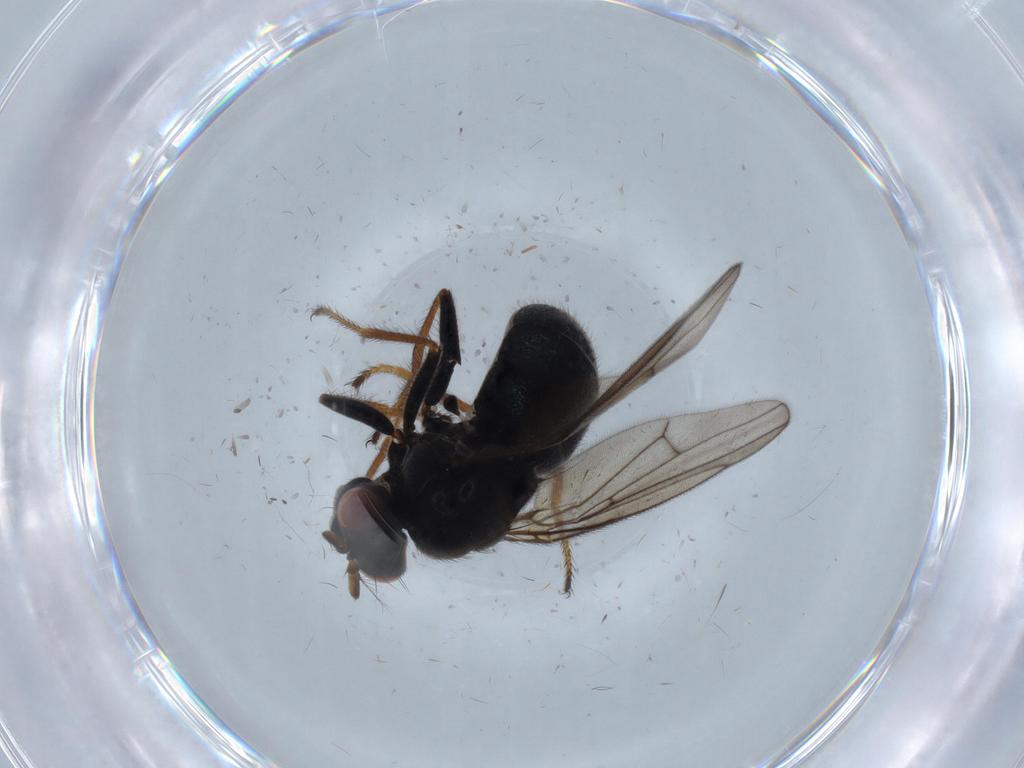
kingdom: Animalia
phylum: Arthropoda
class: Insecta
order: Diptera
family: Ephydridae
